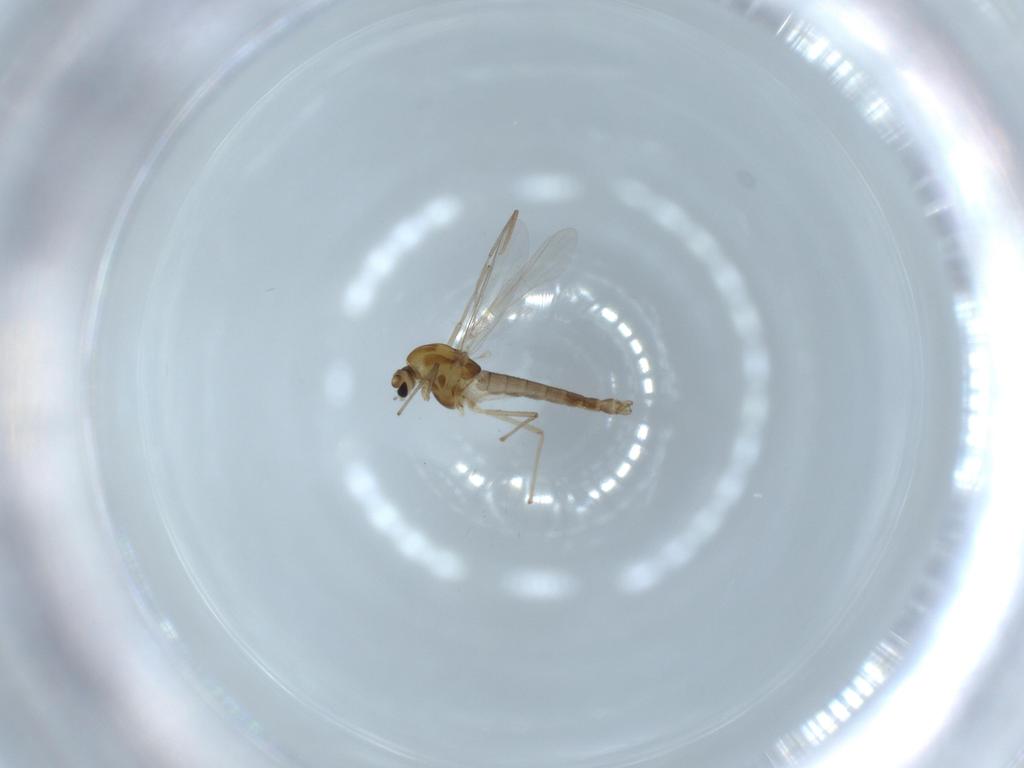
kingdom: Animalia
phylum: Arthropoda
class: Insecta
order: Diptera
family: Chironomidae
